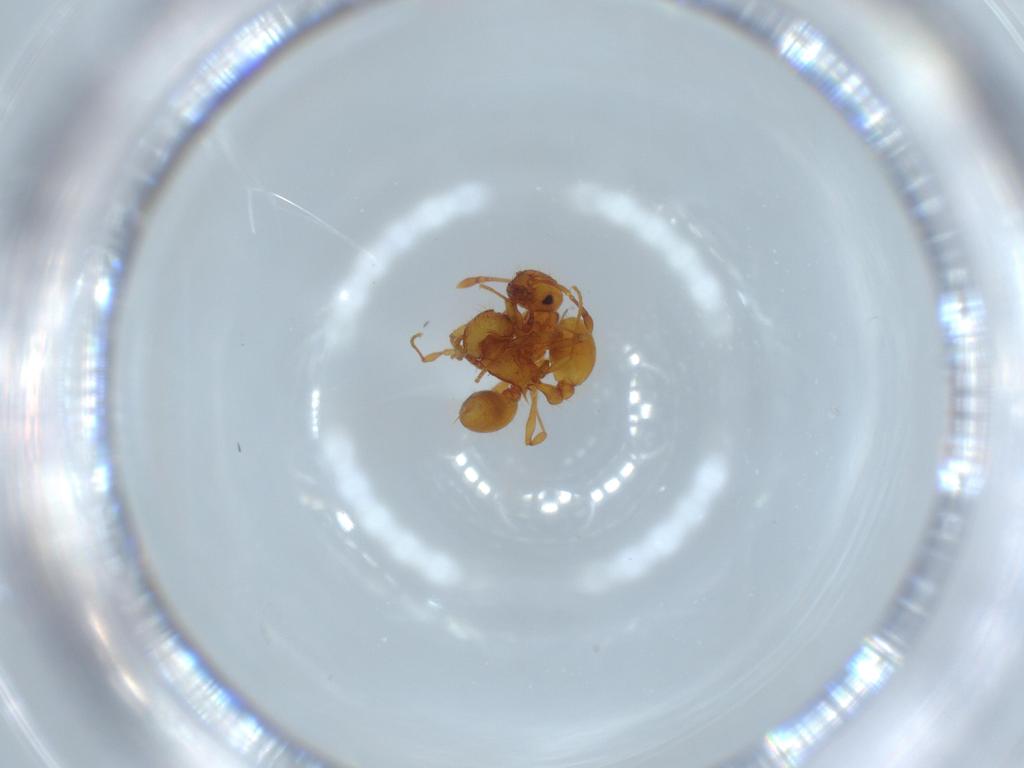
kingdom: Animalia
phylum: Arthropoda
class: Insecta
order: Hymenoptera
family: Formicidae
